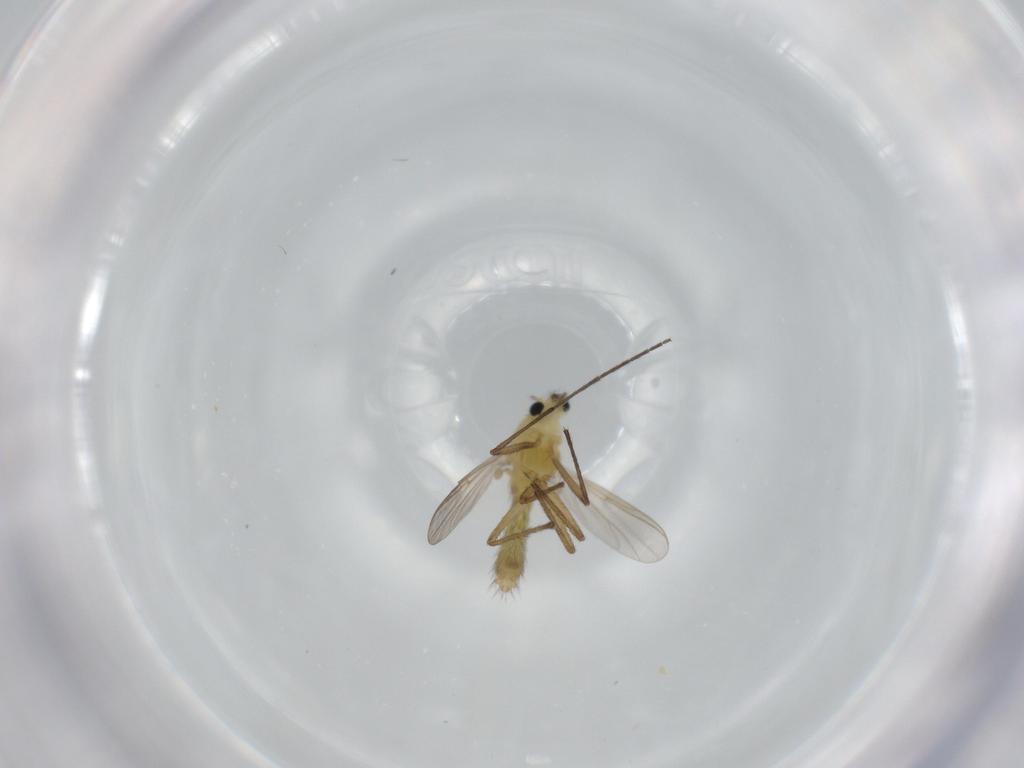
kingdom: Animalia
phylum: Arthropoda
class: Insecta
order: Diptera
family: Chironomidae
